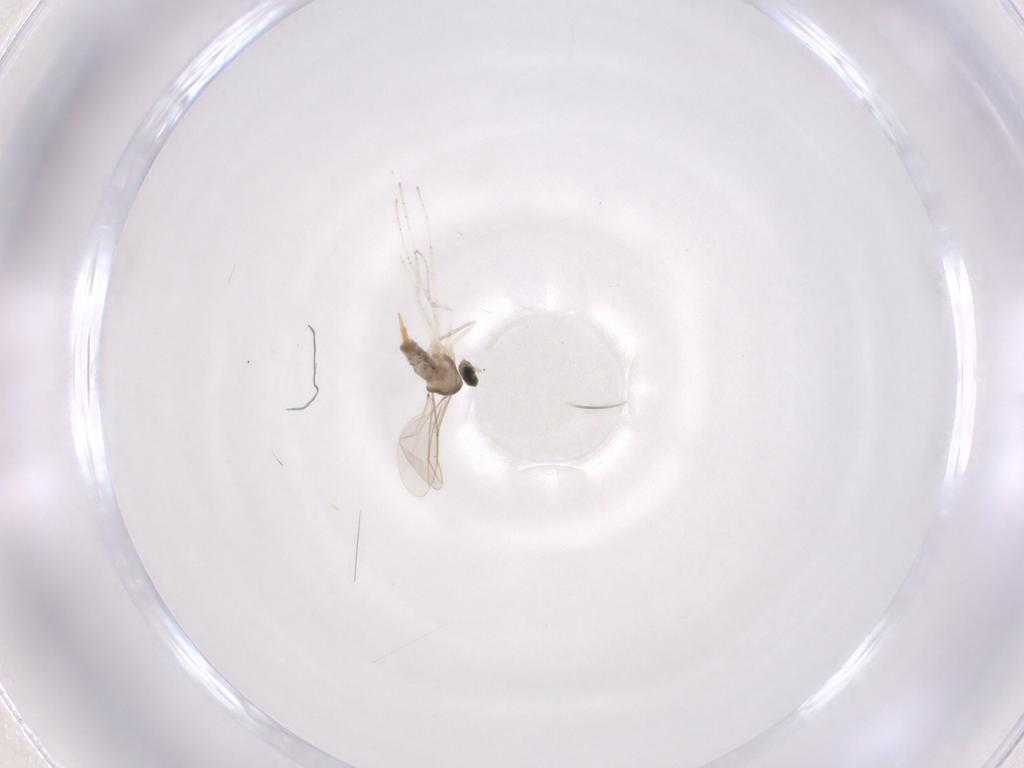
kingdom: Animalia
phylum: Arthropoda
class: Insecta
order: Diptera
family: Cecidomyiidae
